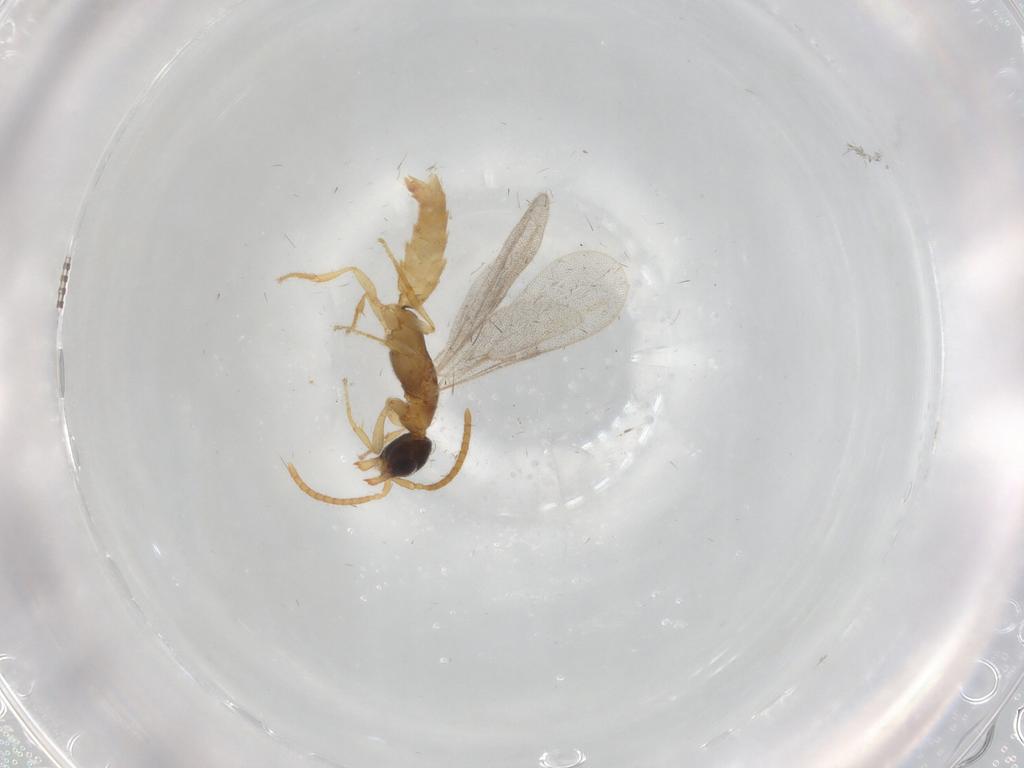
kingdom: Animalia
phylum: Arthropoda
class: Insecta
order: Hymenoptera
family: Bethylidae
